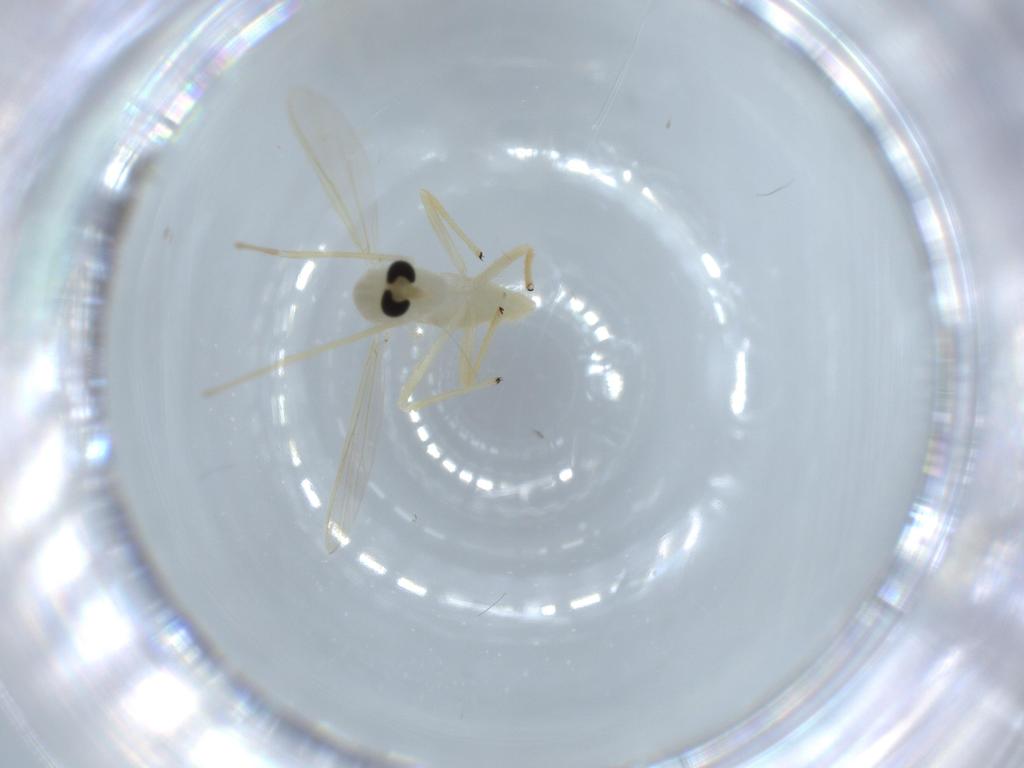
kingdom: Animalia
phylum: Arthropoda
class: Insecta
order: Diptera
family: Chironomidae
